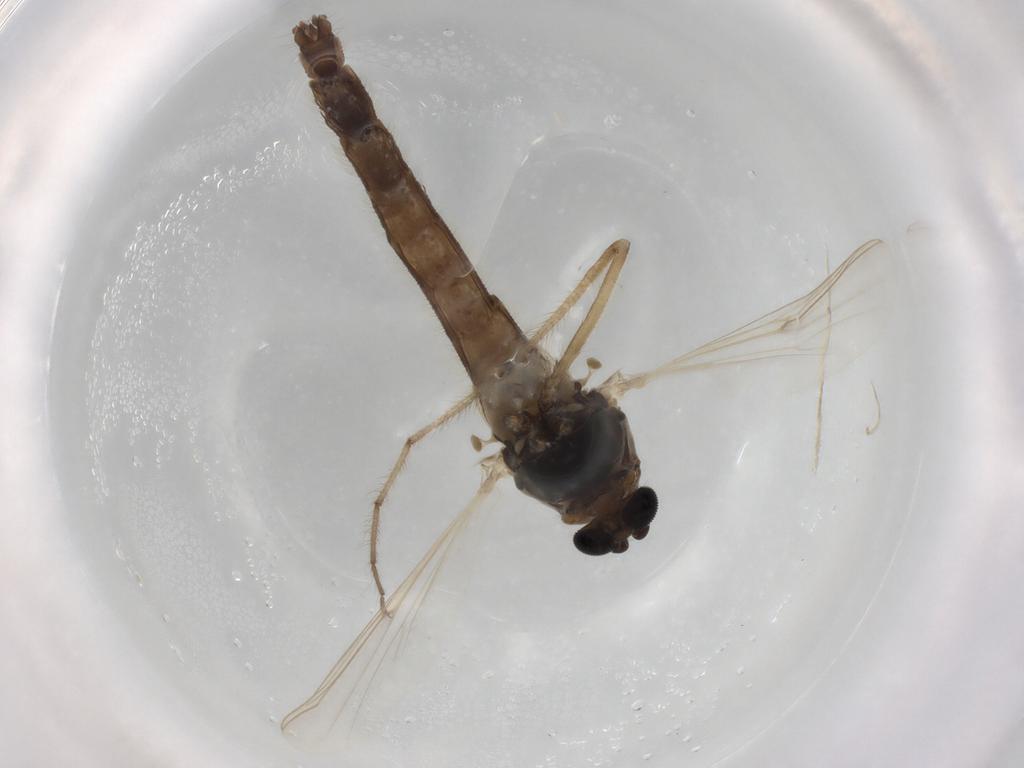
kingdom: Animalia
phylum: Arthropoda
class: Insecta
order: Diptera
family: Chironomidae
